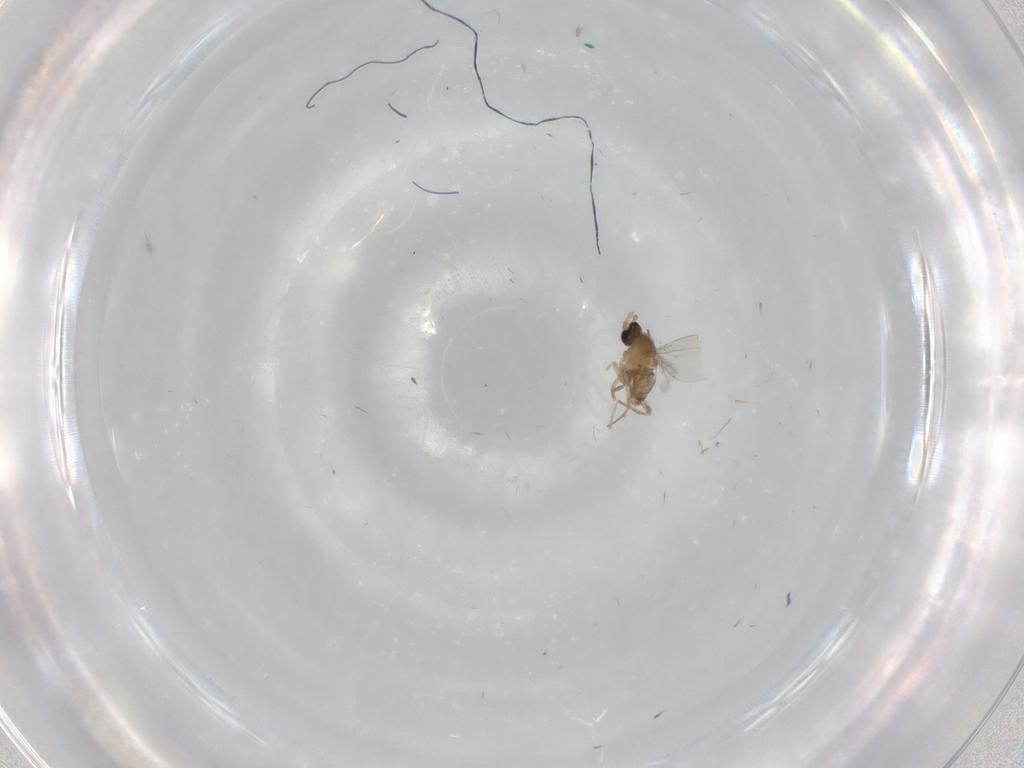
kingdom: Animalia
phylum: Arthropoda
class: Insecta
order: Diptera
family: Cecidomyiidae
